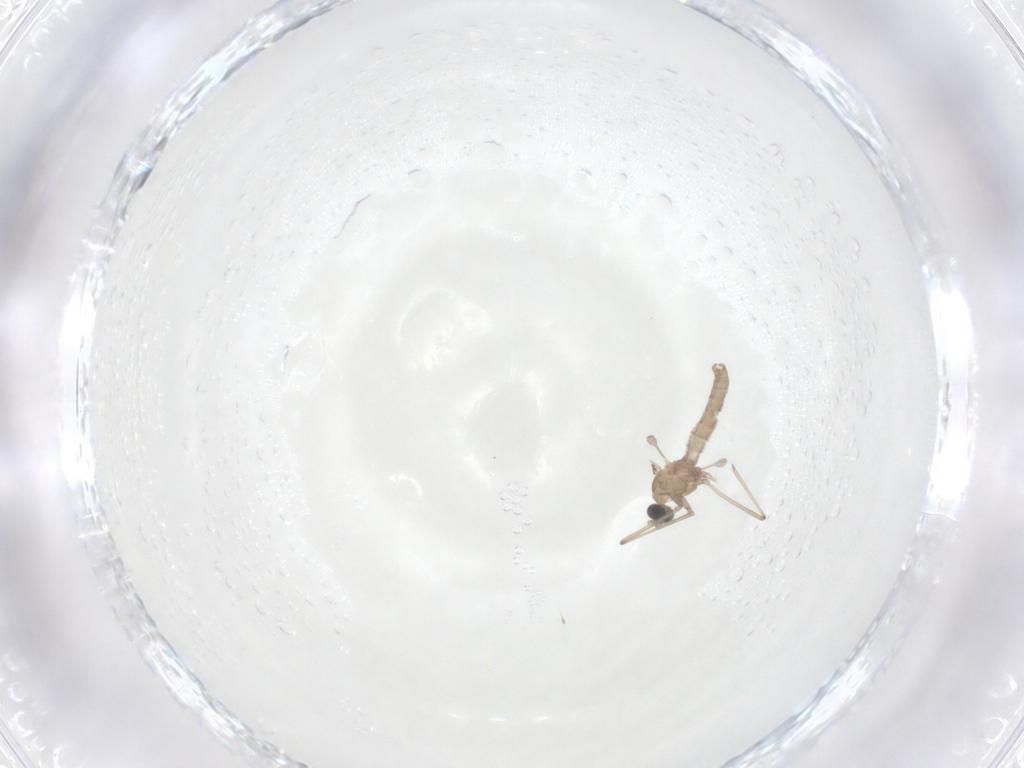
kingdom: Animalia
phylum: Arthropoda
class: Insecta
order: Diptera
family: Cecidomyiidae
